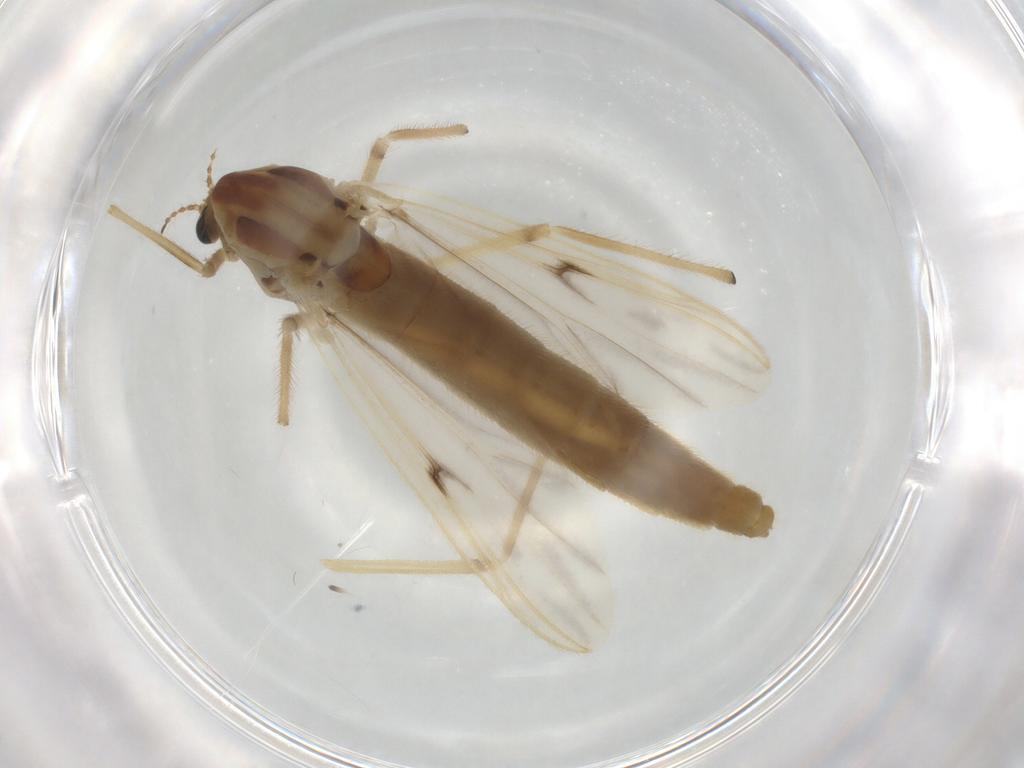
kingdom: Animalia
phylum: Arthropoda
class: Insecta
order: Diptera
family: Chironomidae
